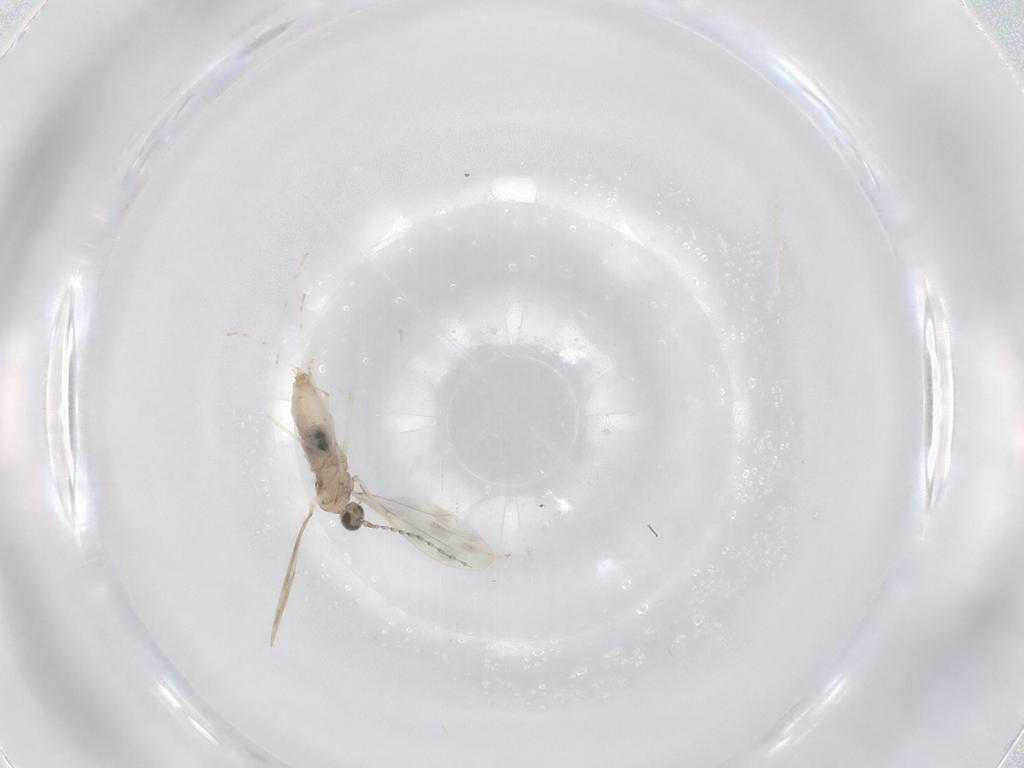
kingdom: Animalia
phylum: Arthropoda
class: Insecta
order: Diptera
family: Cecidomyiidae
